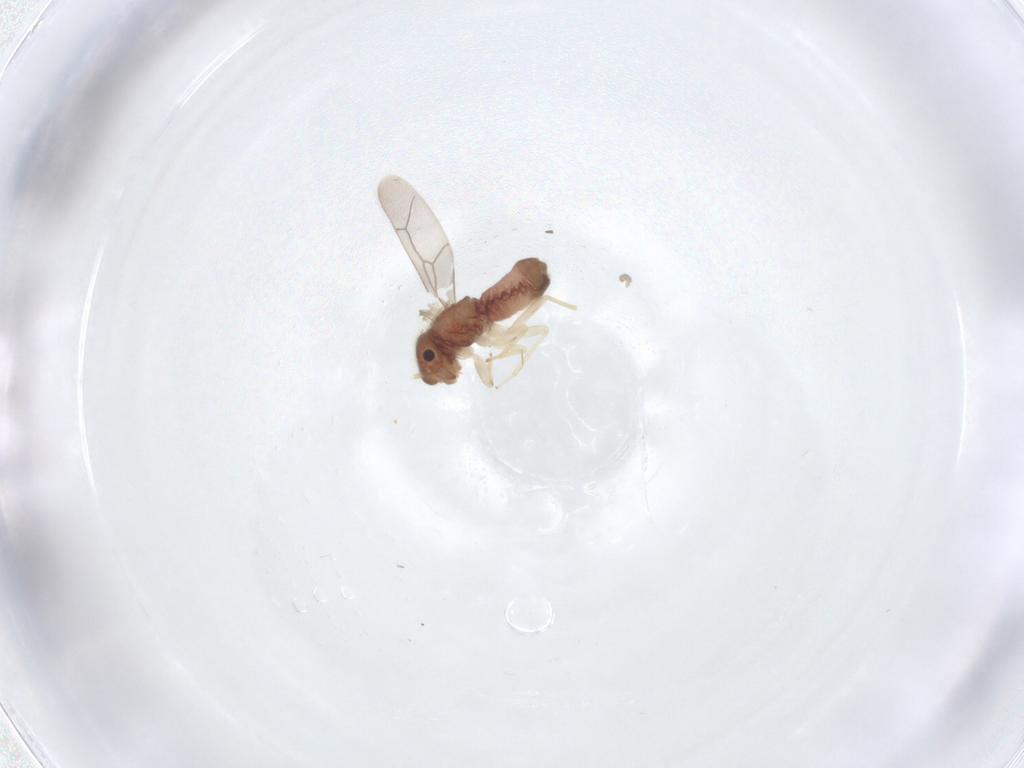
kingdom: Animalia
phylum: Arthropoda
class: Insecta
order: Psocodea
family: Archipsocidae
